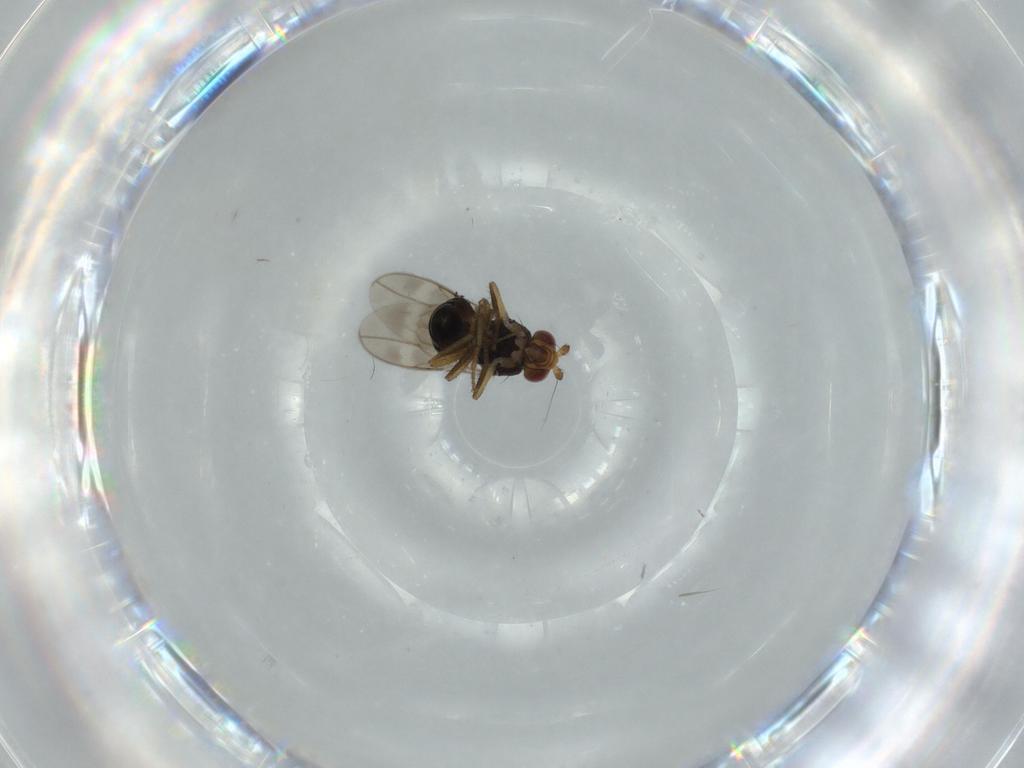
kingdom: Animalia
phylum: Arthropoda
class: Insecta
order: Diptera
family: Sphaeroceridae
